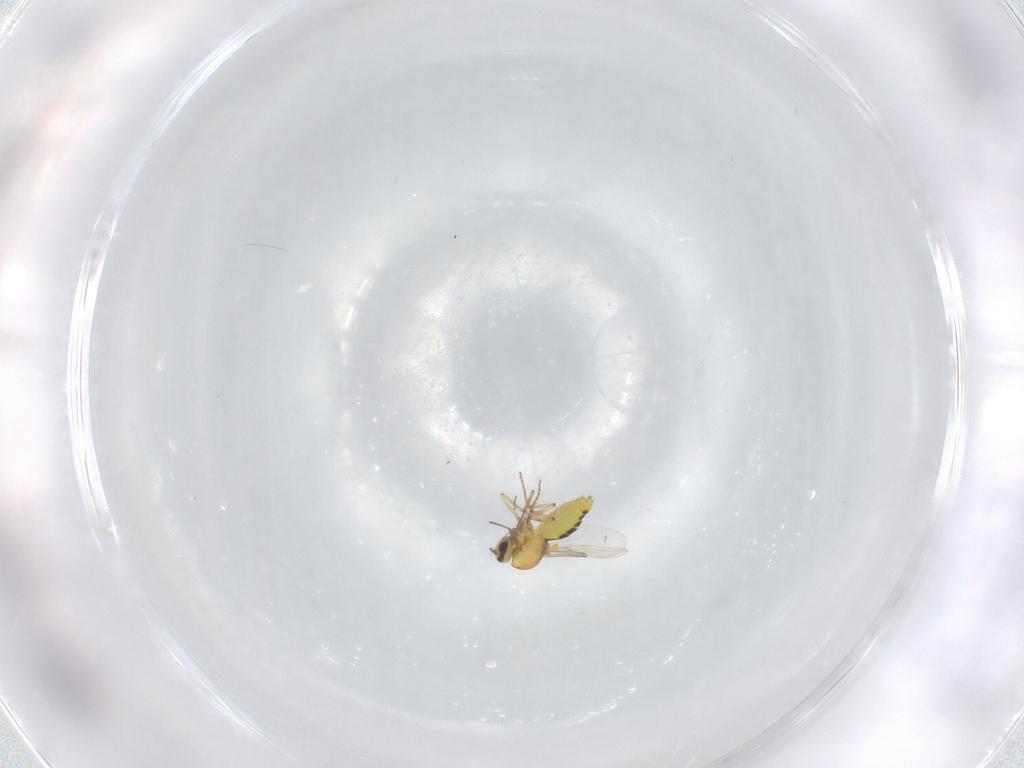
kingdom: Animalia
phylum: Arthropoda
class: Insecta
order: Diptera
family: Ceratopogonidae
